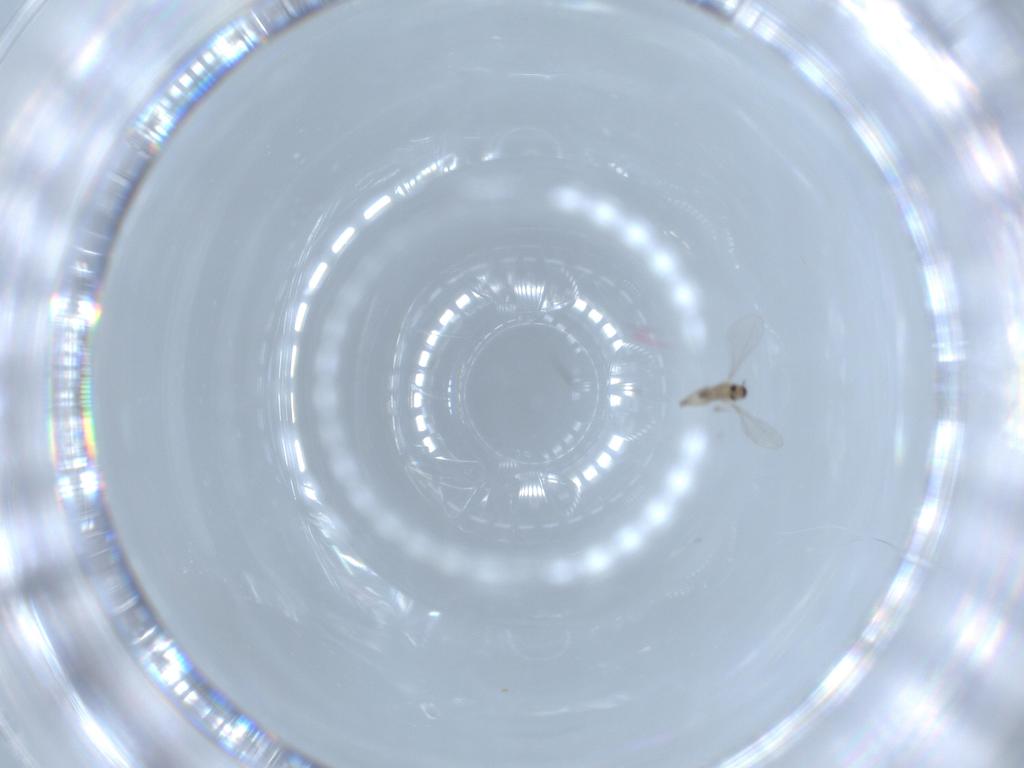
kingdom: Animalia
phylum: Arthropoda
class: Insecta
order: Diptera
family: Cecidomyiidae
